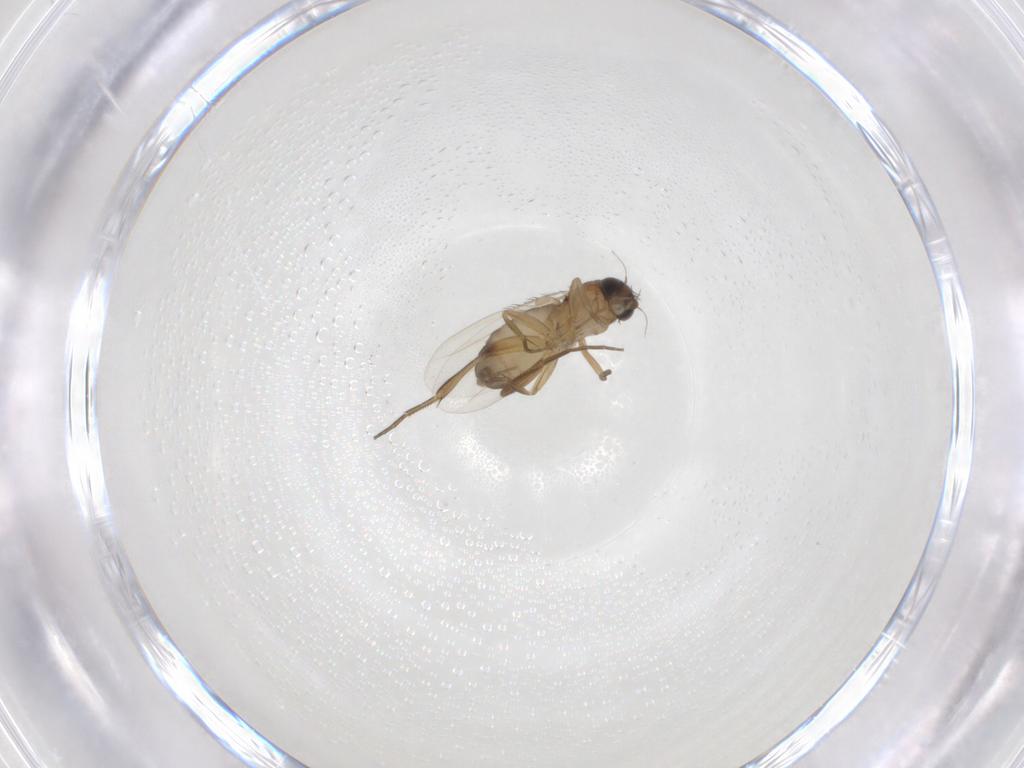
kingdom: Animalia
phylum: Arthropoda
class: Insecta
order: Diptera
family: Phoridae
